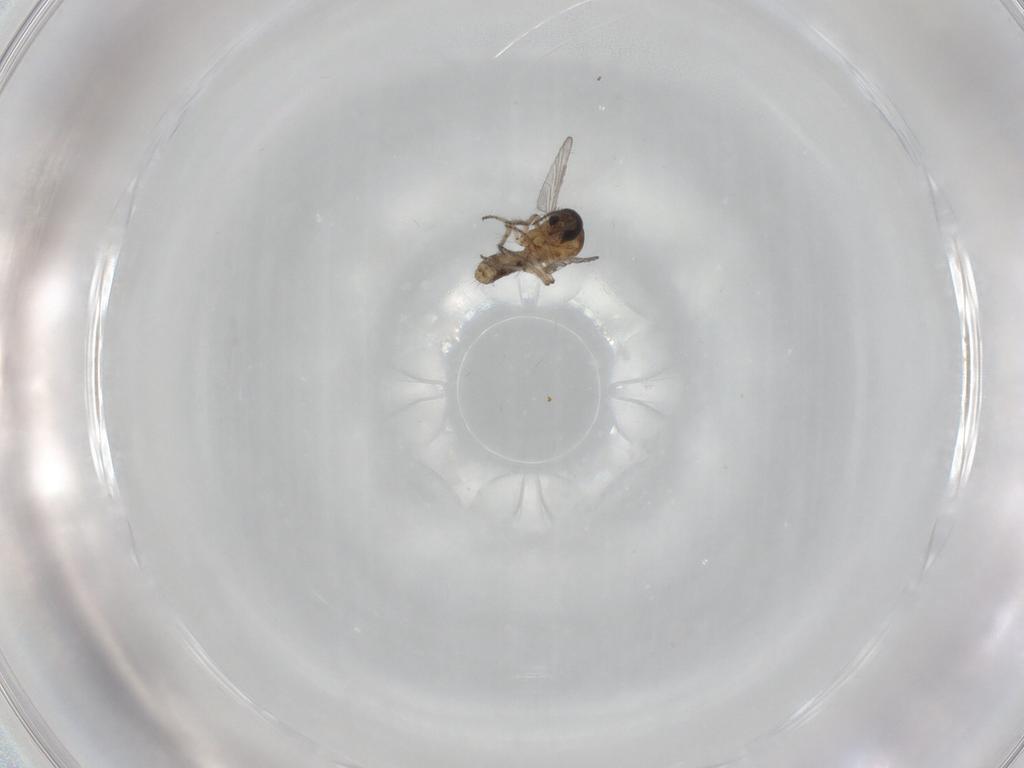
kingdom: Animalia
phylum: Arthropoda
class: Insecta
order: Diptera
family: Ceratopogonidae
